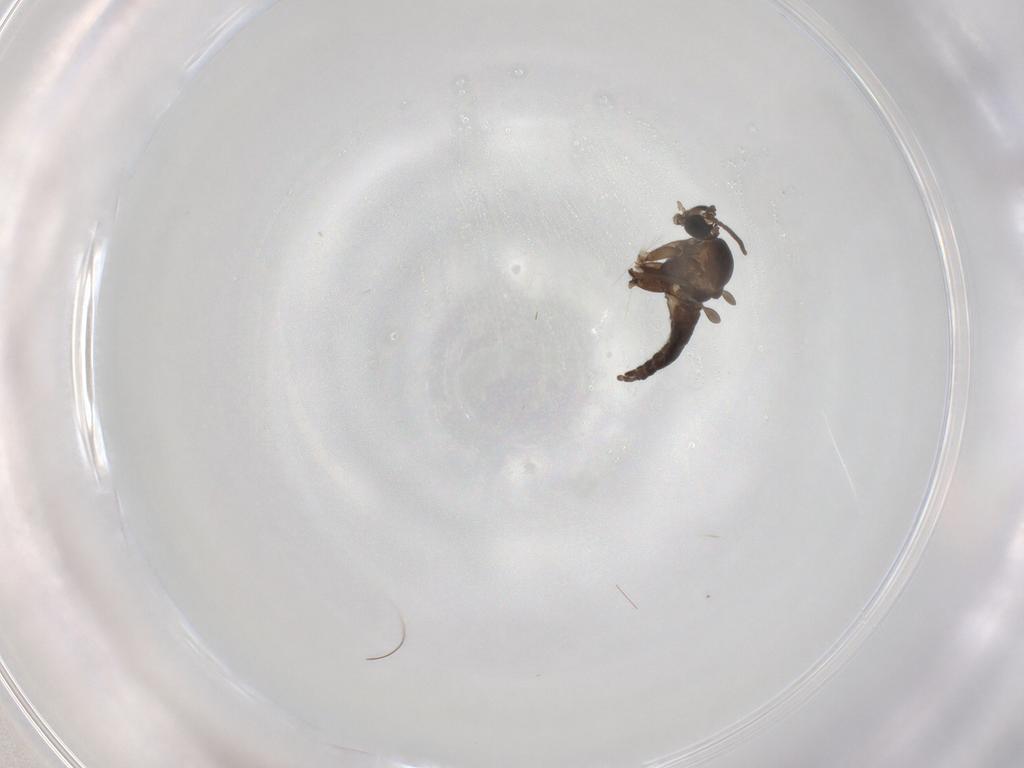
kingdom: Animalia
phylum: Arthropoda
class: Insecta
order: Diptera
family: Sciaridae
